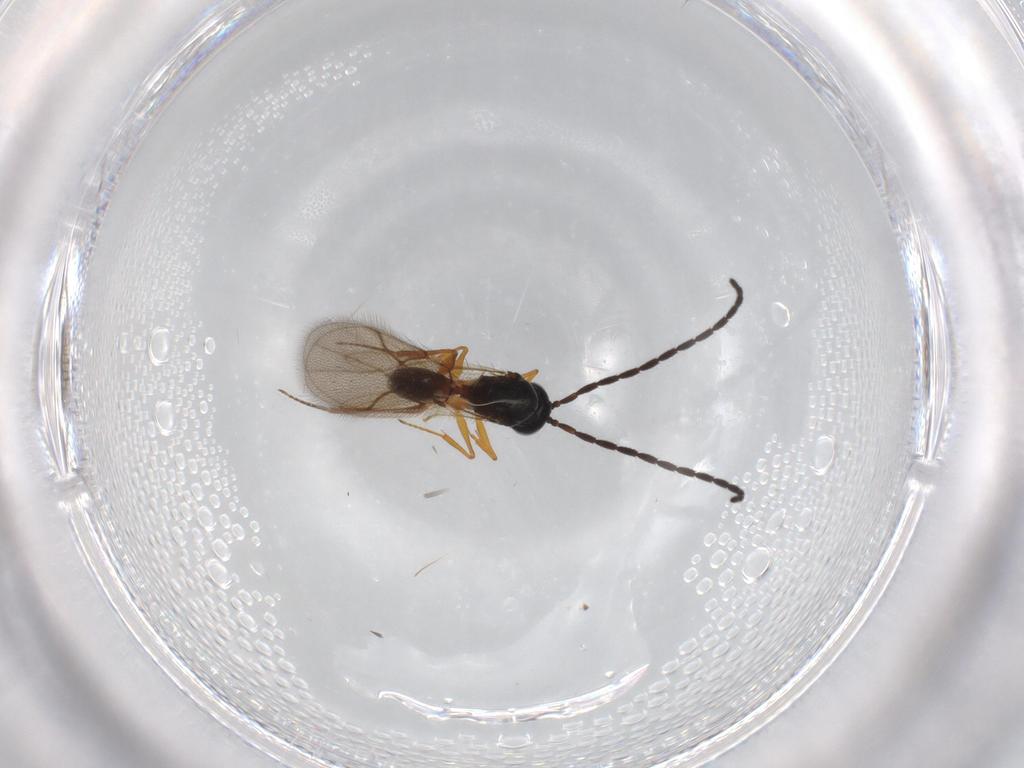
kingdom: Animalia
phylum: Arthropoda
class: Insecta
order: Hymenoptera
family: Figitidae
